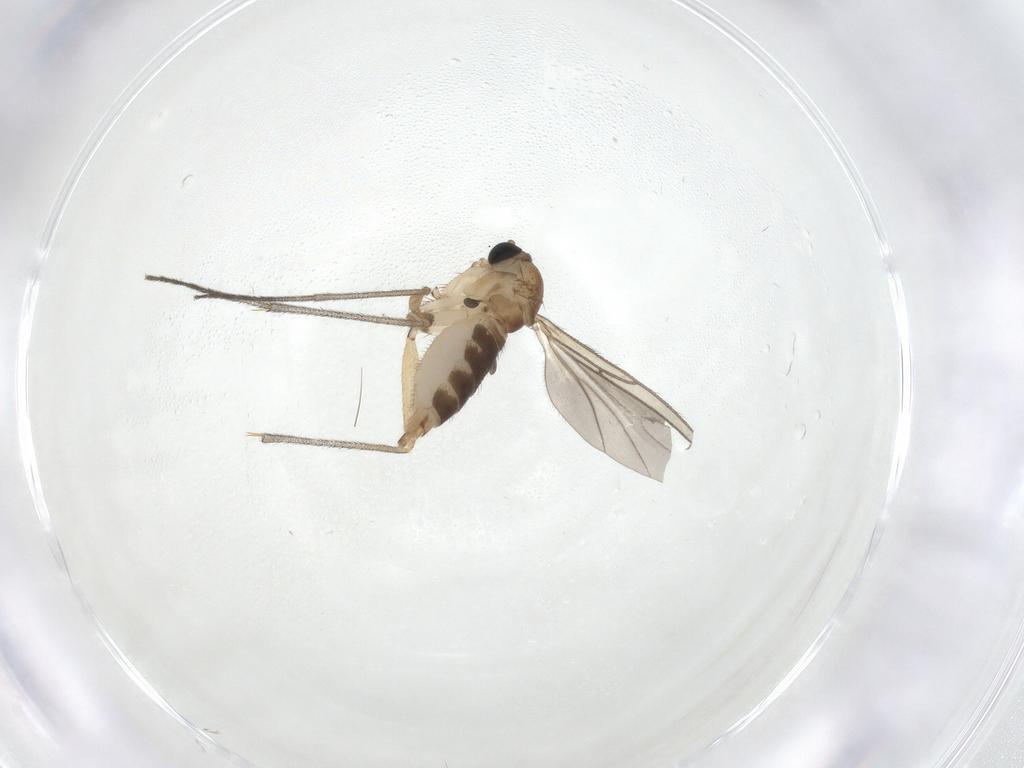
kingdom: Animalia
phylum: Arthropoda
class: Insecta
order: Diptera
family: Sciaridae
